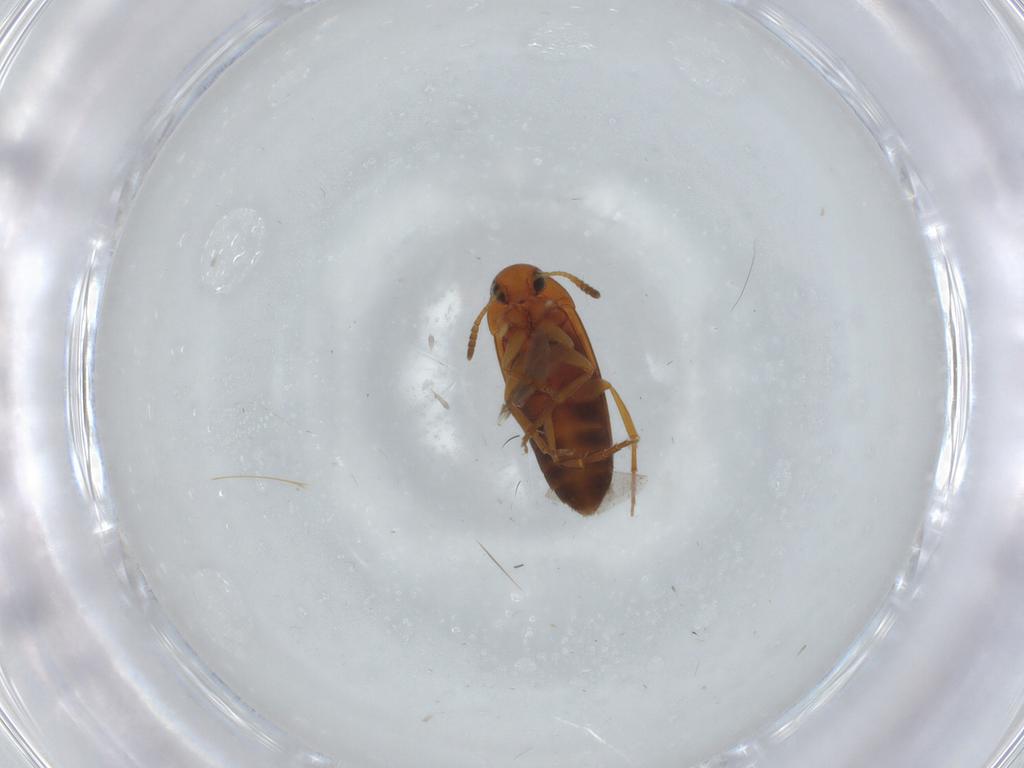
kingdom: Animalia
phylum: Arthropoda
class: Insecta
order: Coleoptera
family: Scraptiidae
